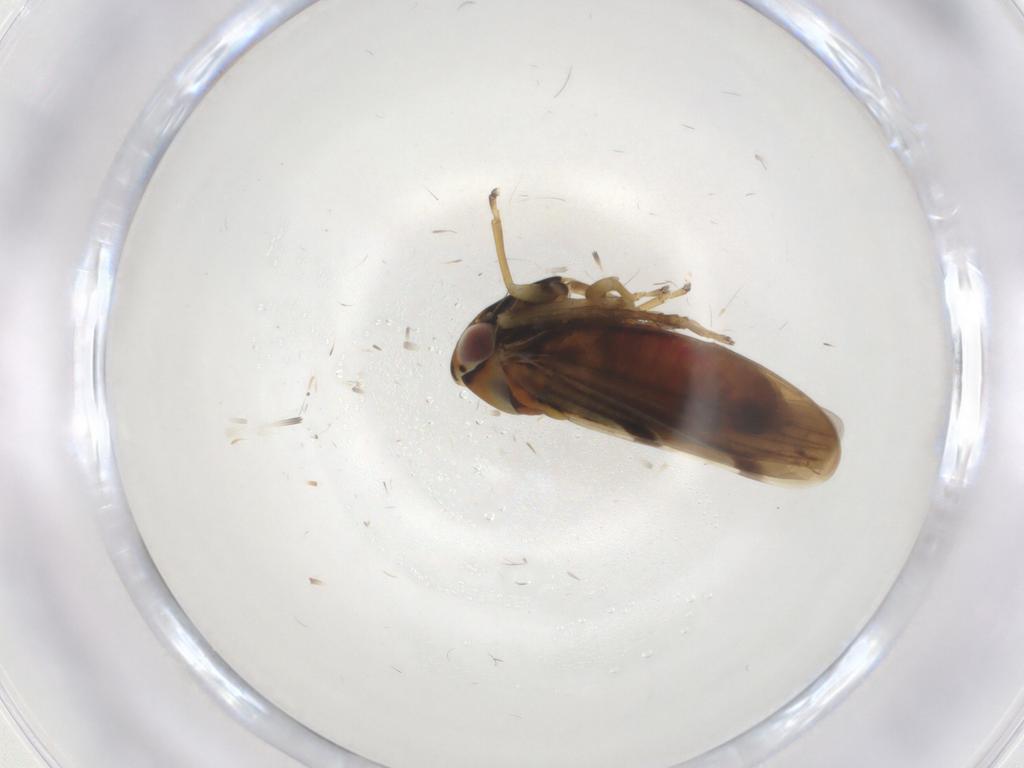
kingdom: Animalia
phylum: Arthropoda
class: Insecta
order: Hemiptera
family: Cicadellidae
